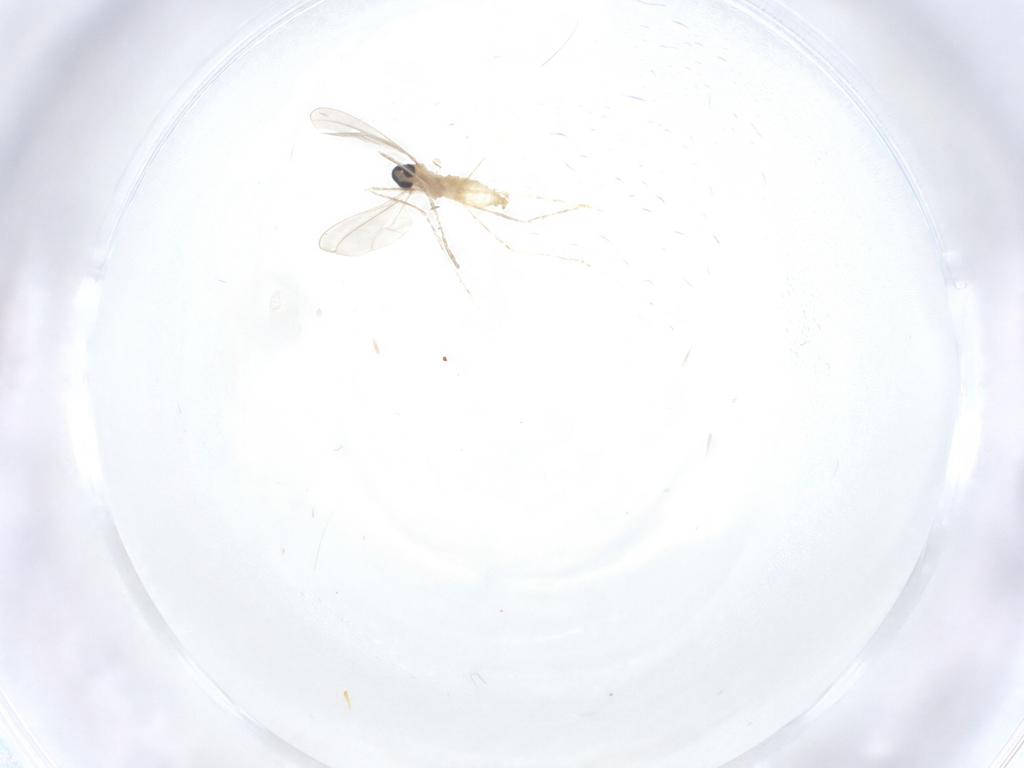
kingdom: Animalia
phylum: Arthropoda
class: Insecta
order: Diptera
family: Cecidomyiidae
